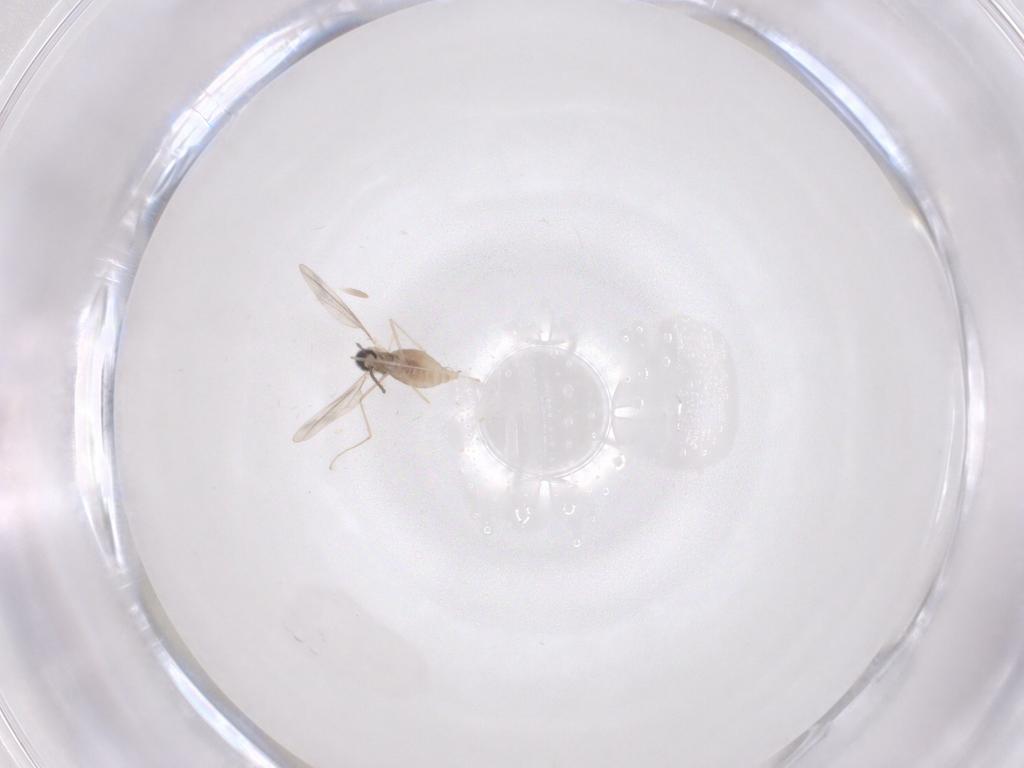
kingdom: Animalia
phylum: Arthropoda
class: Insecta
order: Diptera
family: Cecidomyiidae
